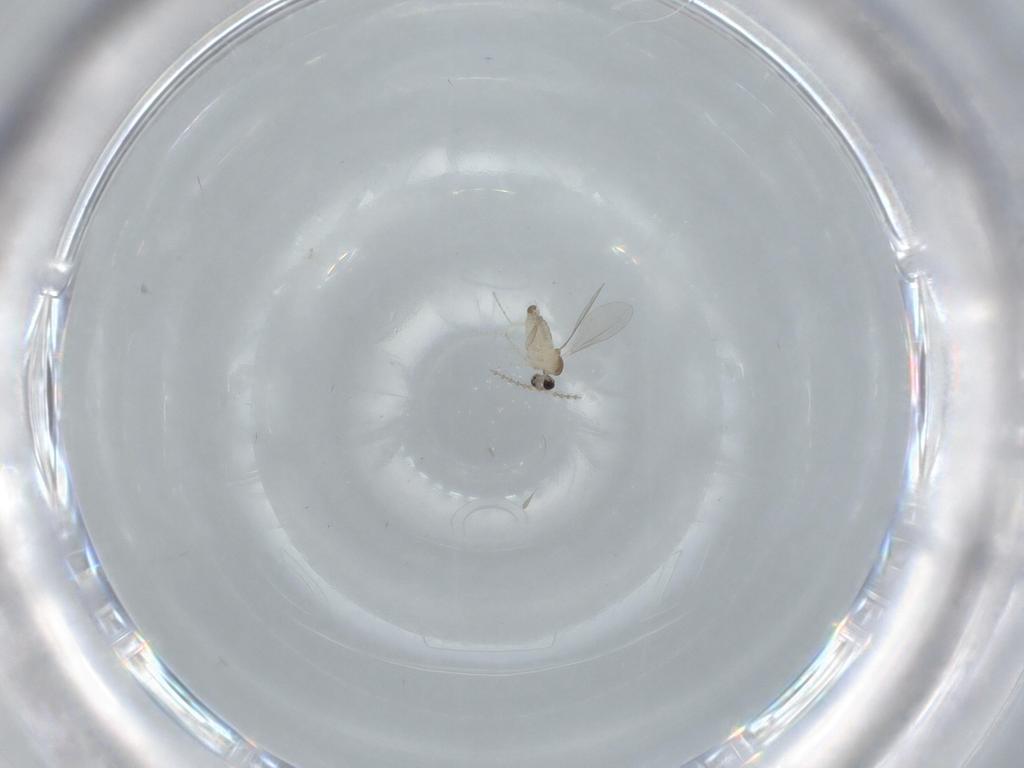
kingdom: Animalia
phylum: Arthropoda
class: Insecta
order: Diptera
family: Cecidomyiidae
